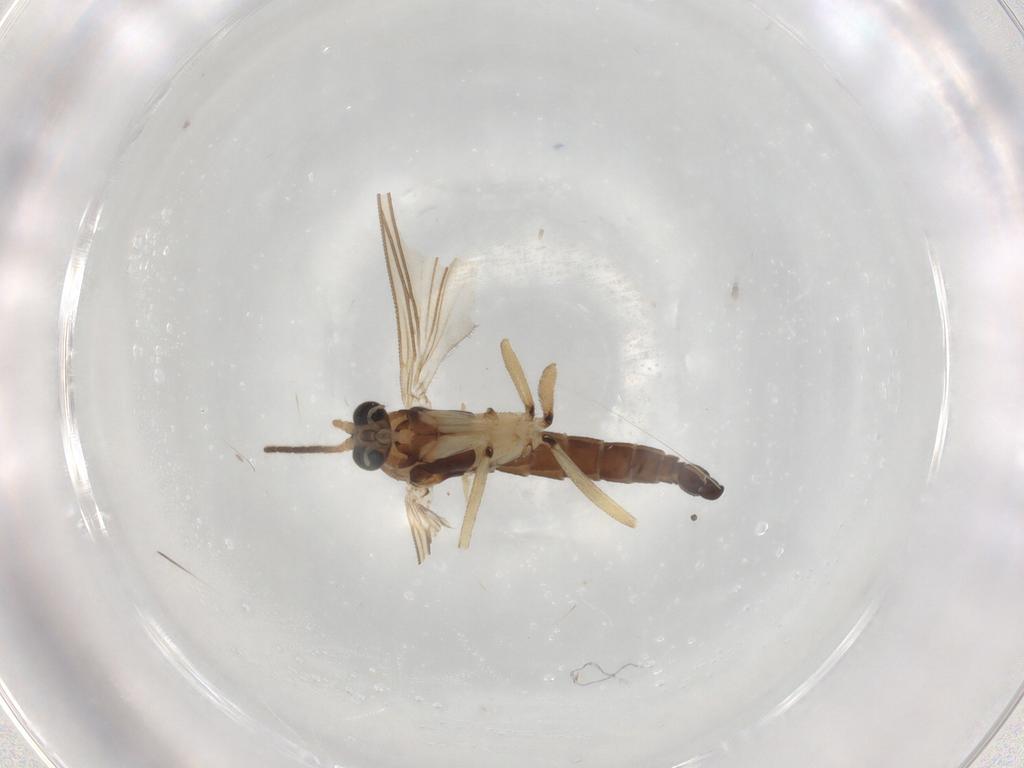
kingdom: Animalia
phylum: Arthropoda
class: Insecta
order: Diptera
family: Sciaridae
